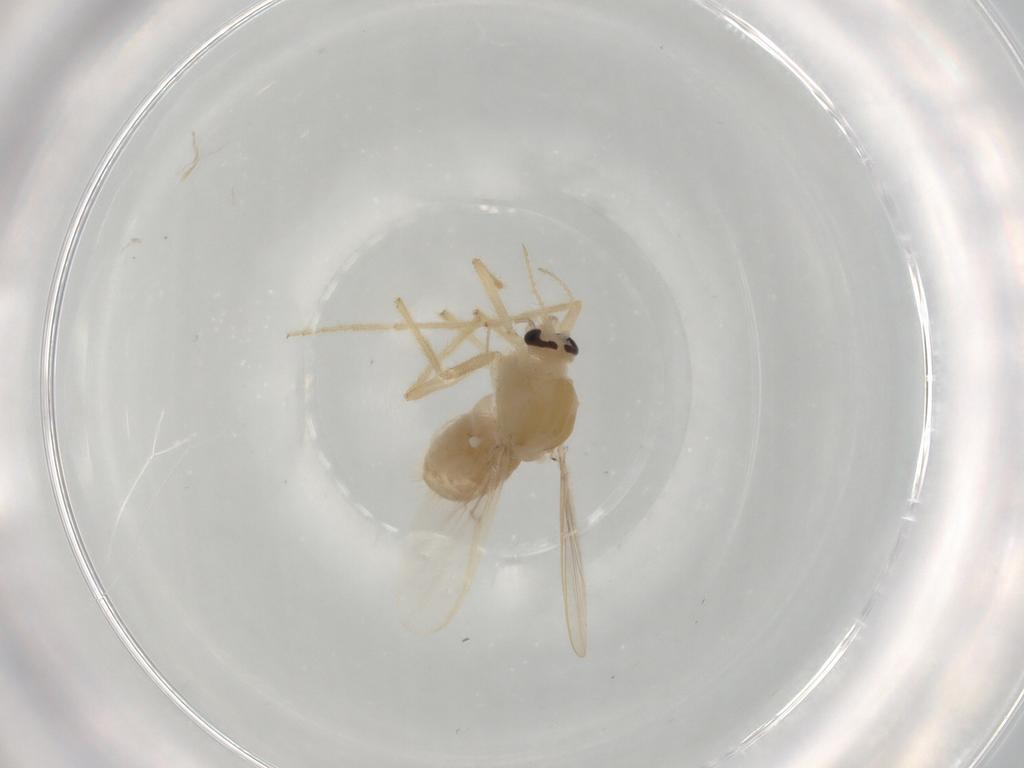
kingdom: Animalia
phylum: Arthropoda
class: Insecta
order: Diptera
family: Chironomidae
